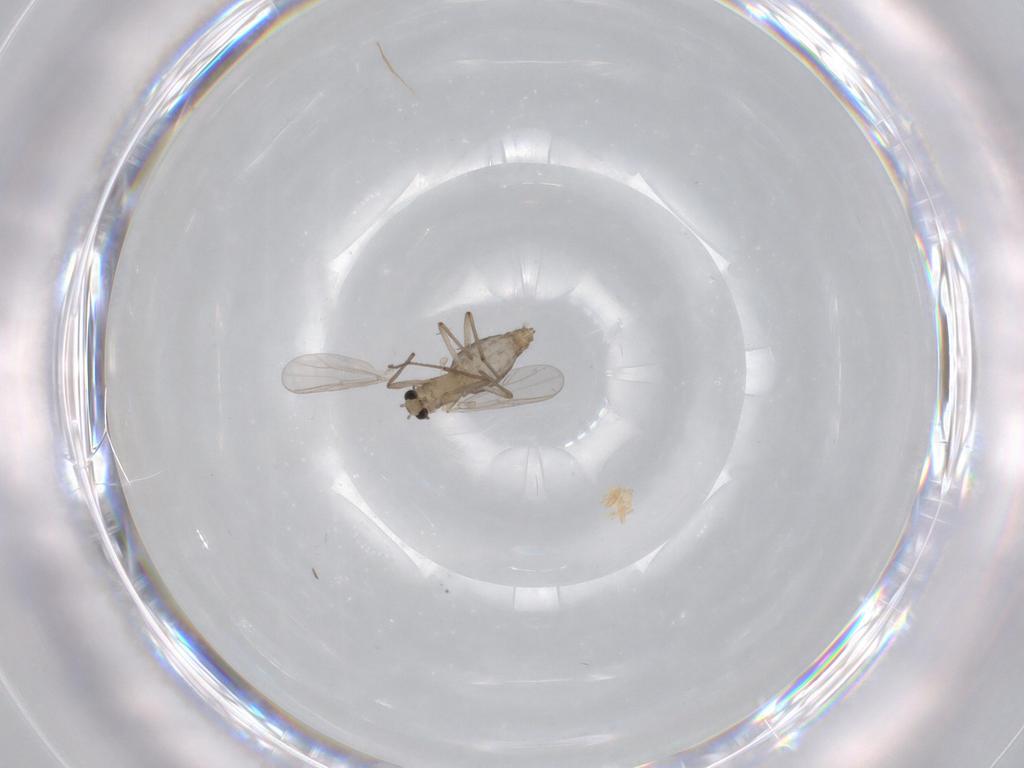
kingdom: Animalia
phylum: Arthropoda
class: Insecta
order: Diptera
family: Chironomidae
